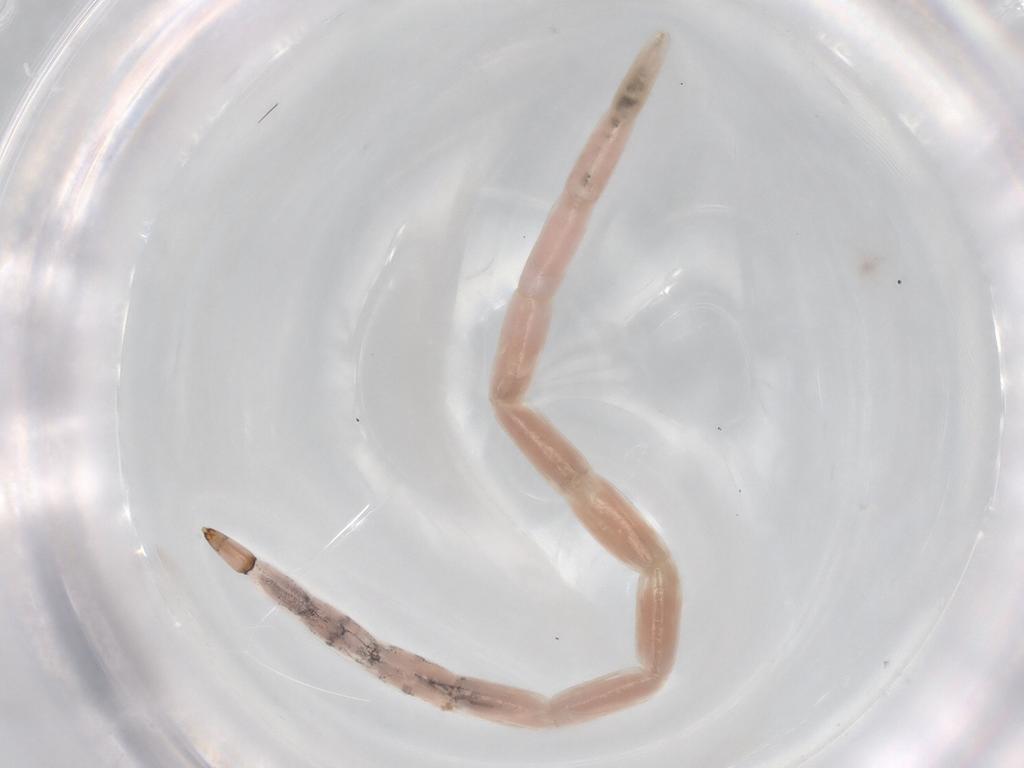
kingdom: Animalia
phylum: Arthropoda
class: Insecta
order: Diptera
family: Ceratopogonidae
